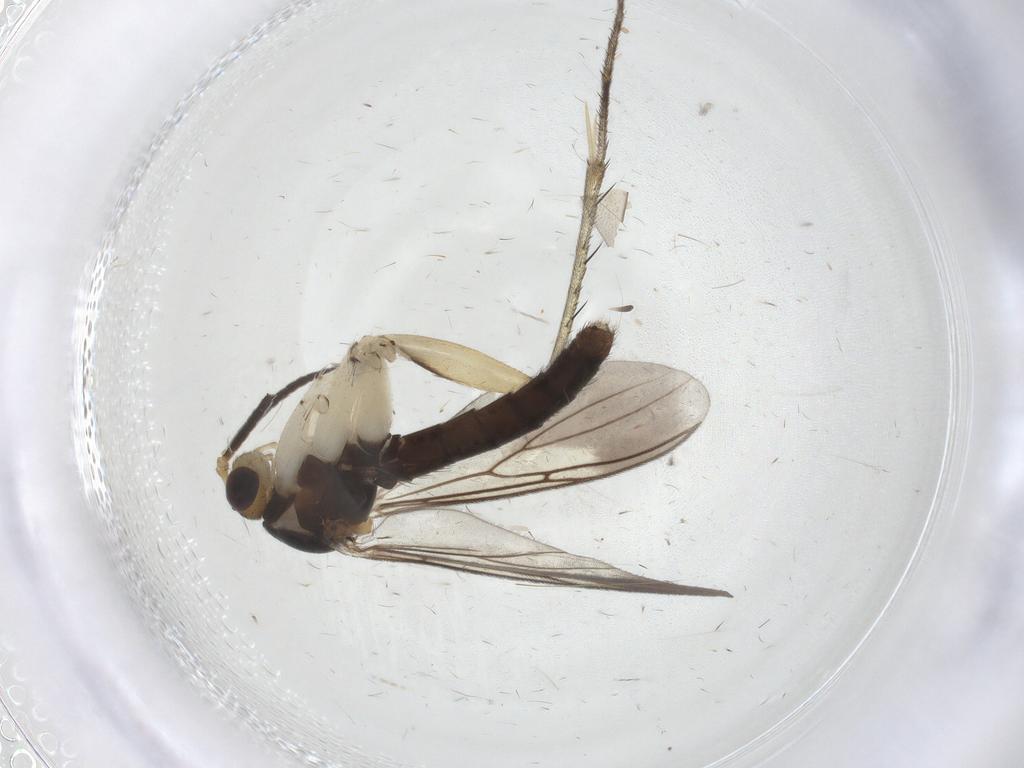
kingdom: Animalia
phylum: Arthropoda
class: Insecta
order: Diptera
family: Mycetophilidae
